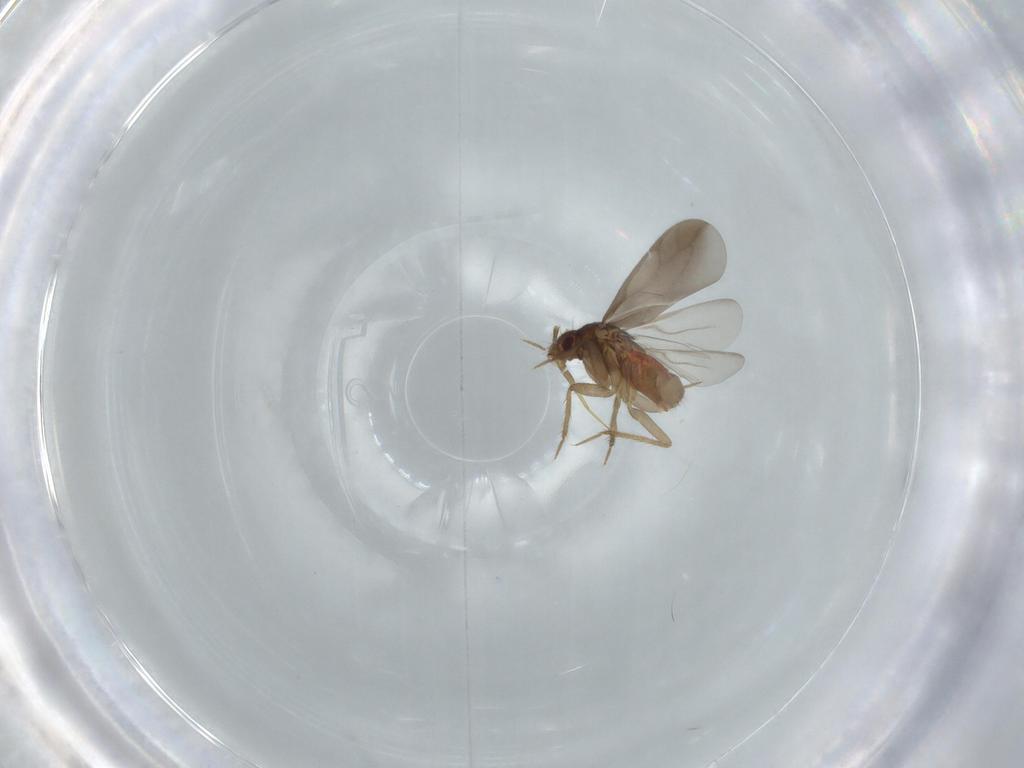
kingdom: Animalia
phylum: Arthropoda
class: Insecta
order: Hemiptera
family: Ceratocombidae
